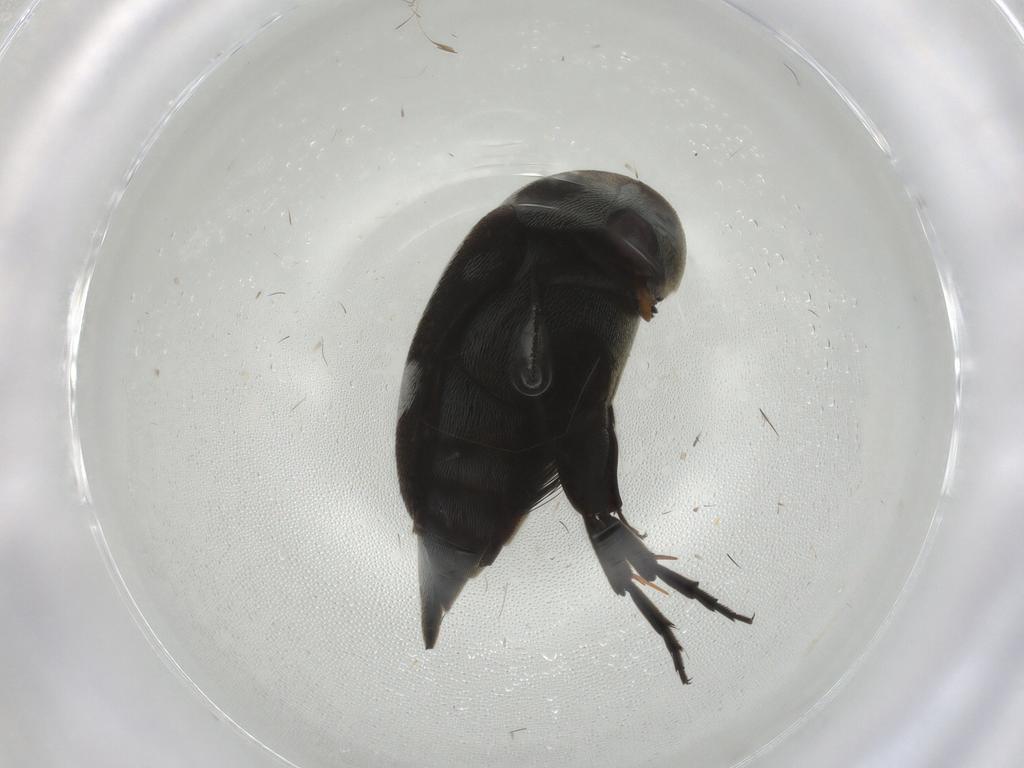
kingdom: Animalia
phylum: Arthropoda
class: Insecta
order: Coleoptera
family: Mordellidae
